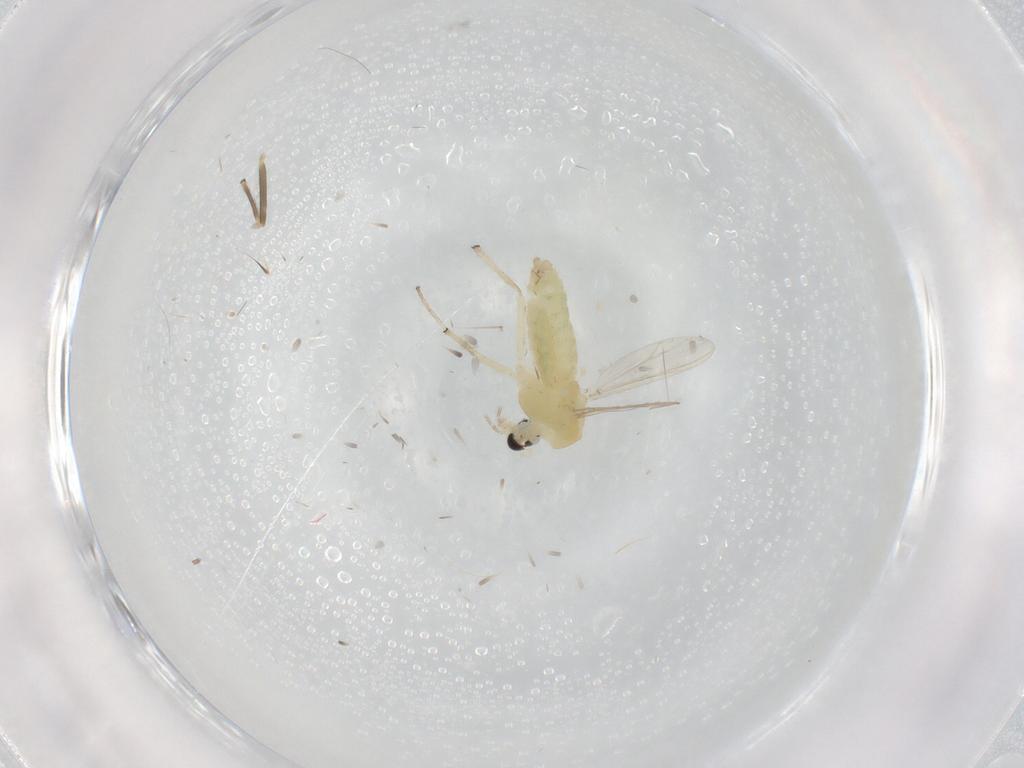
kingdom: Animalia
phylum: Arthropoda
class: Insecta
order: Diptera
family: Chironomidae
